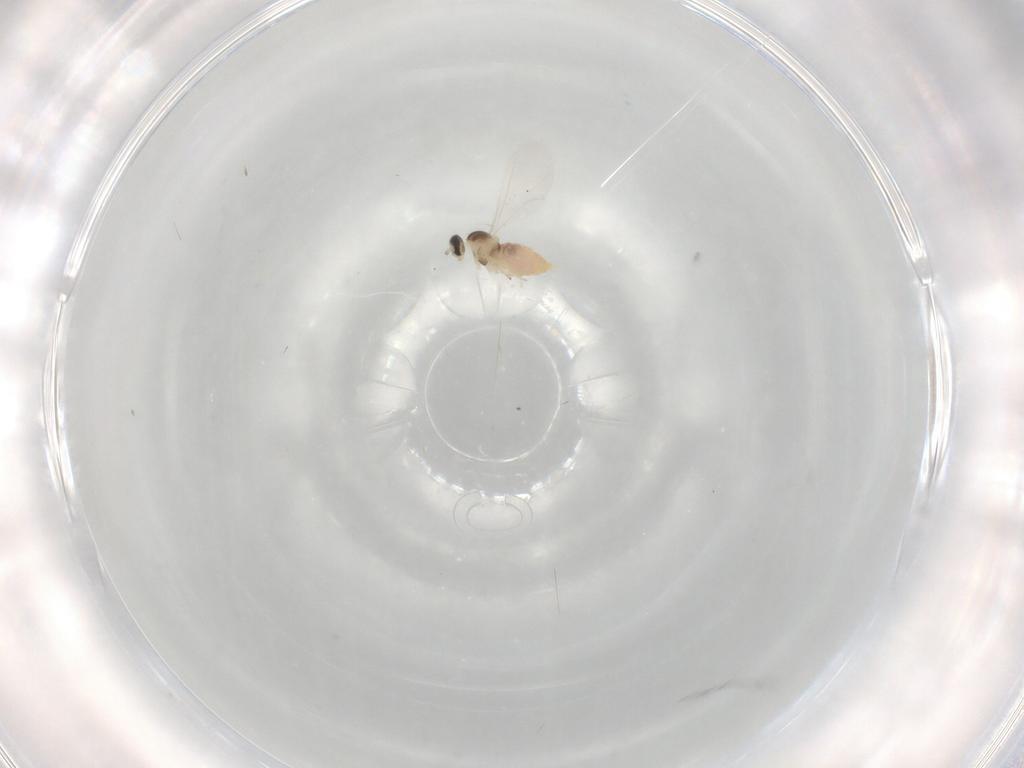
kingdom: Animalia
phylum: Arthropoda
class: Insecta
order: Diptera
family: Cecidomyiidae
